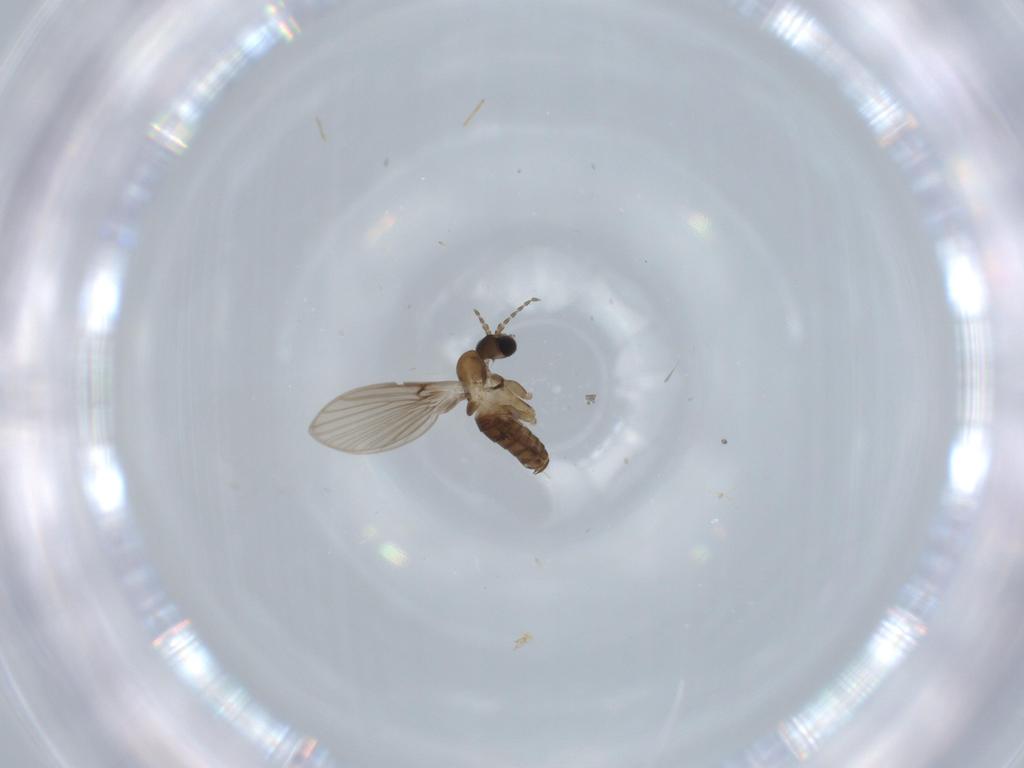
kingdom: Animalia
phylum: Arthropoda
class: Insecta
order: Diptera
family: Psychodidae
